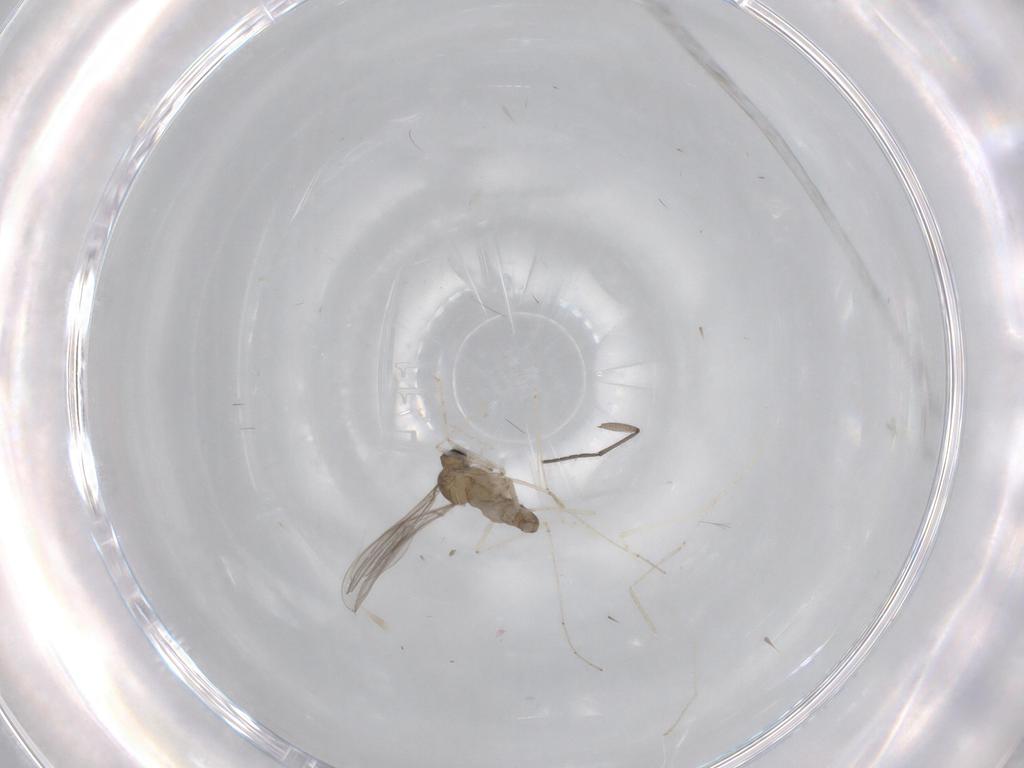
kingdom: Animalia
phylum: Arthropoda
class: Insecta
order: Diptera
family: Cecidomyiidae
